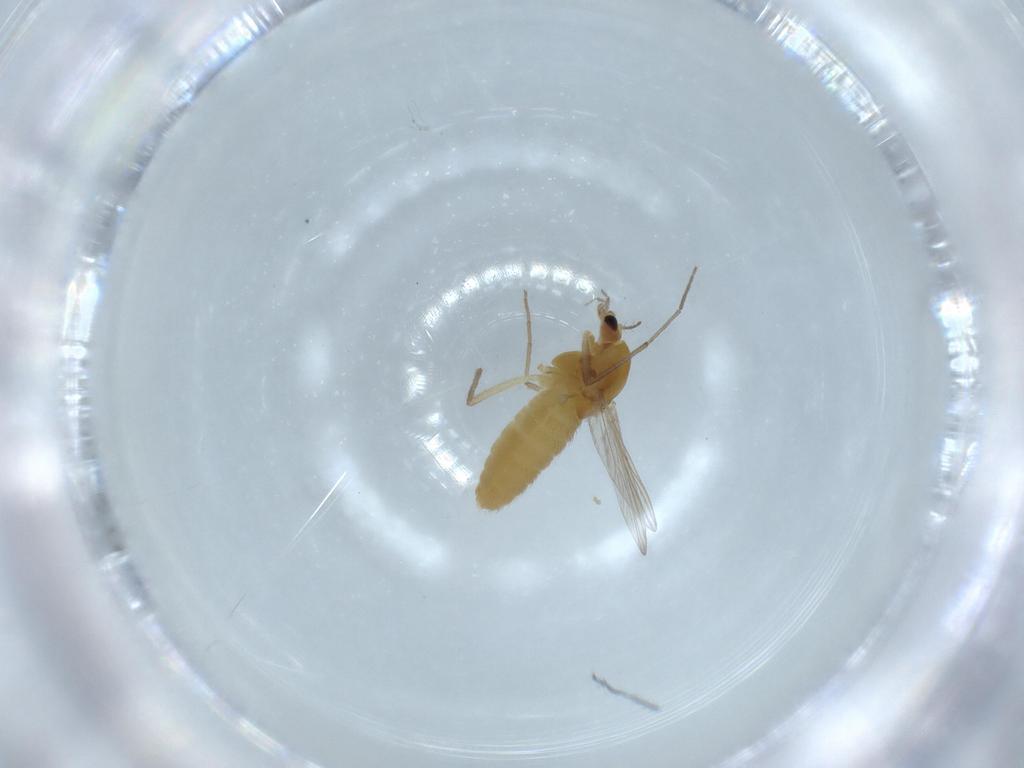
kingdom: Animalia
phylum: Arthropoda
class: Insecta
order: Diptera
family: Chironomidae
